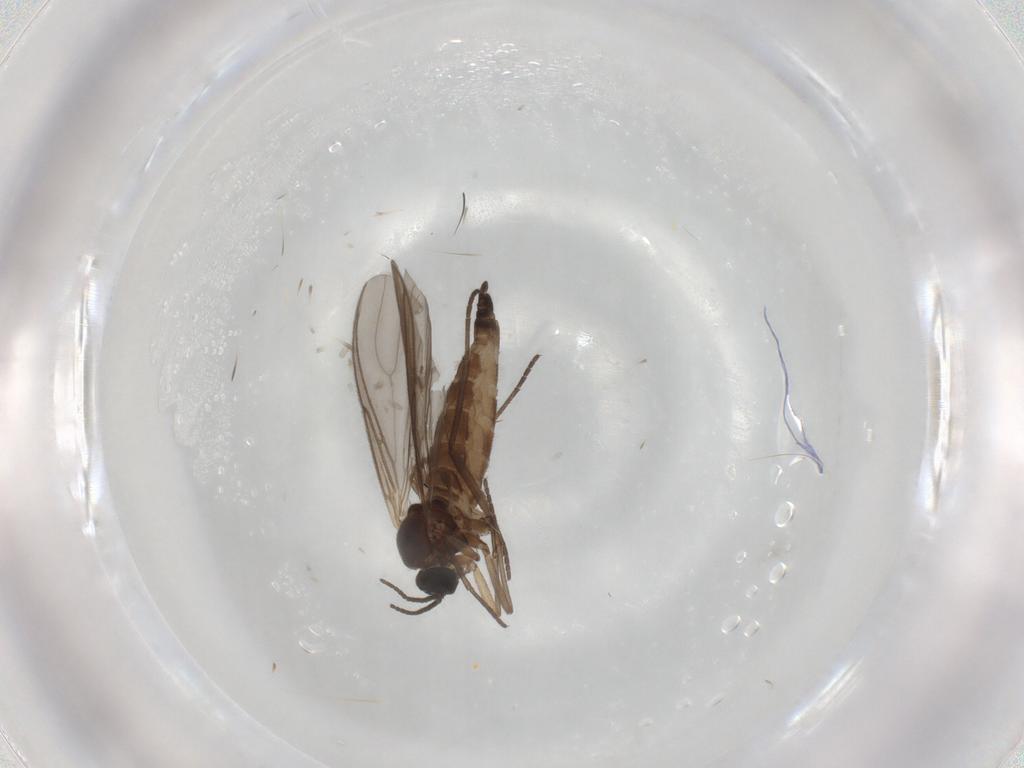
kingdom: Animalia
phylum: Arthropoda
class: Insecta
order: Diptera
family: Sciaridae
